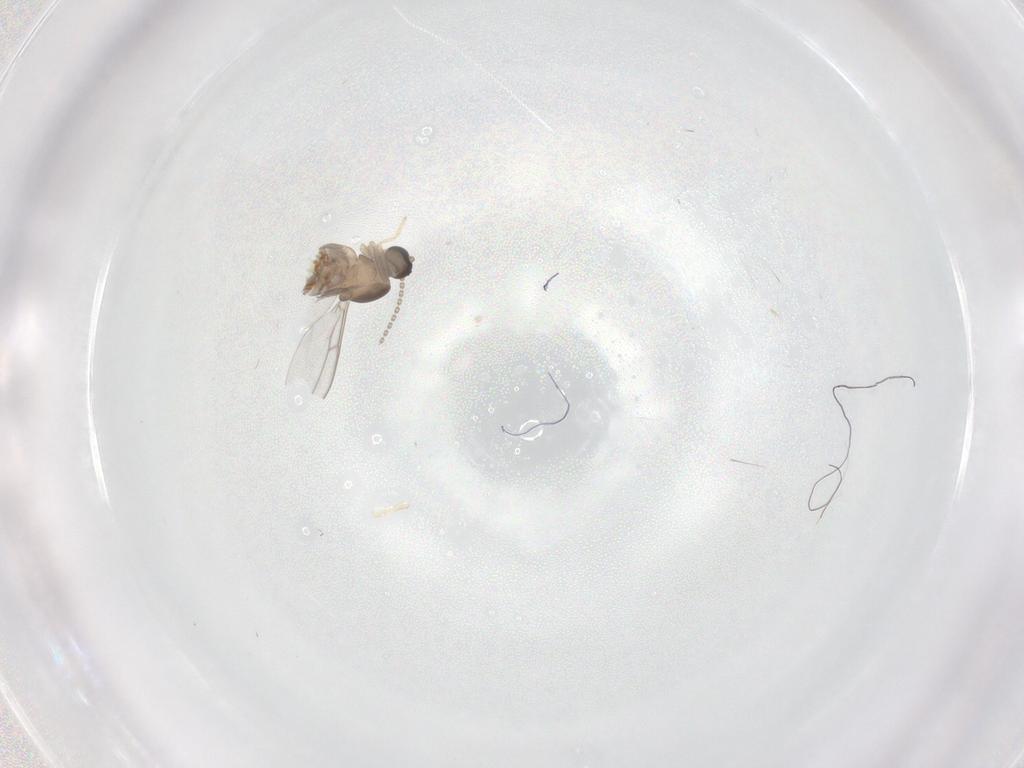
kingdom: Animalia
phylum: Arthropoda
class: Insecta
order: Diptera
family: Cecidomyiidae
